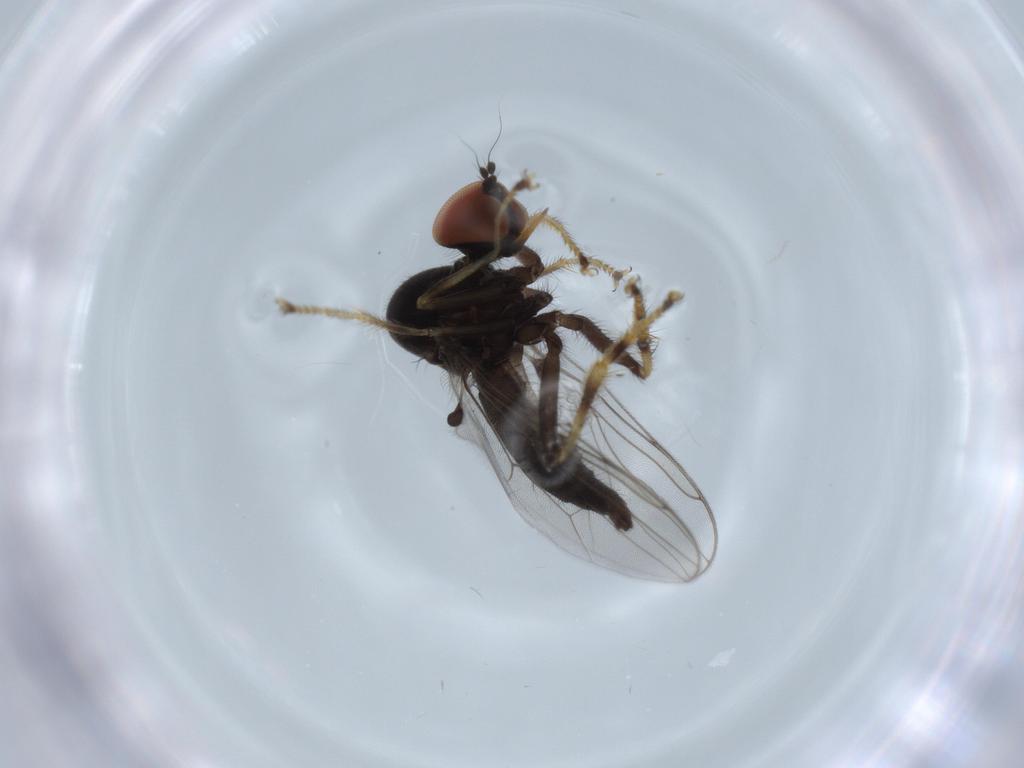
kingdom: Animalia
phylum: Arthropoda
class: Insecta
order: Diptera
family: Hybotidae
